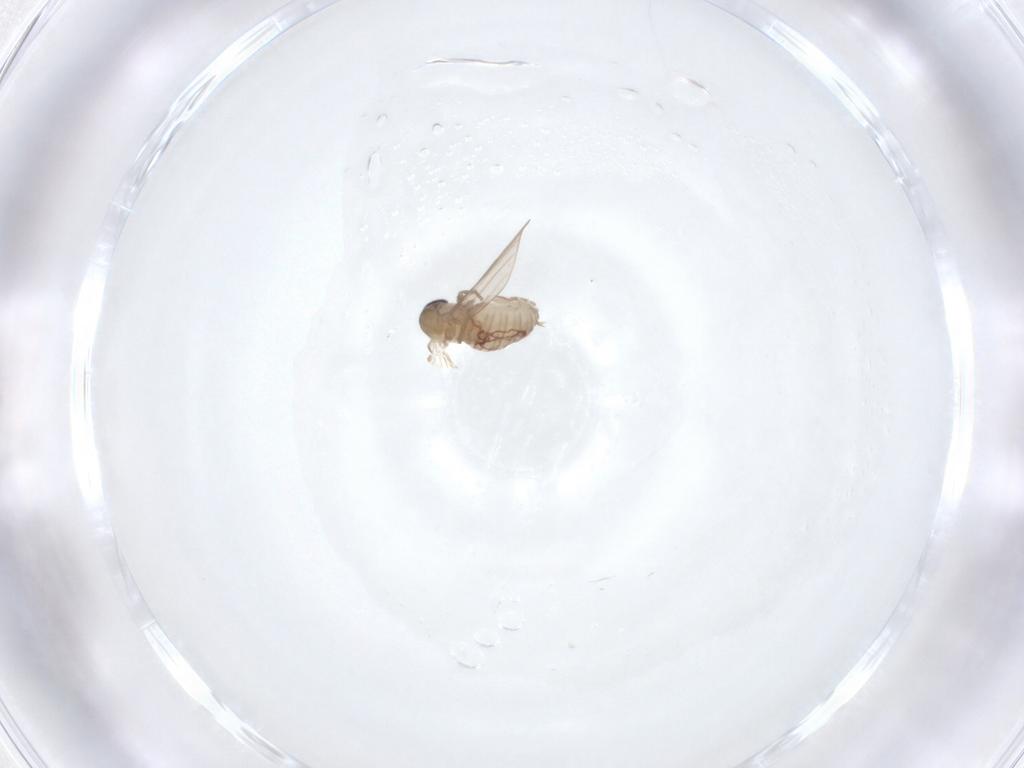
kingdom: Animalia
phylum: Arthropoda
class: Insecta
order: Diptera
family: Psychodidae
